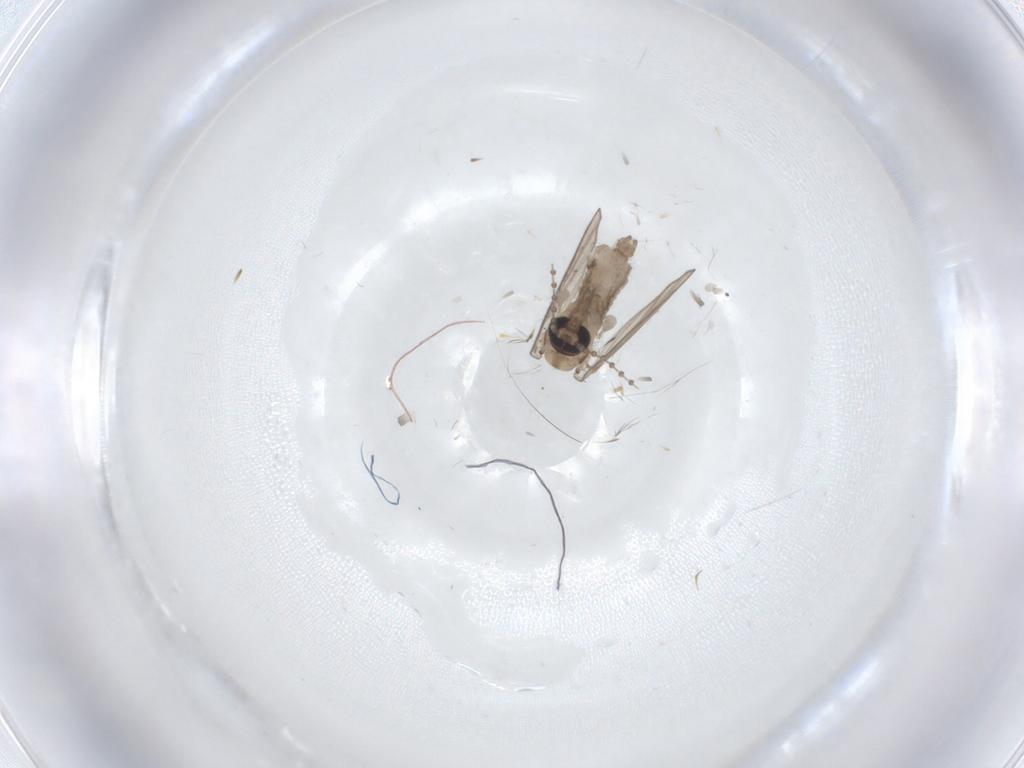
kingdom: Animalia
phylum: Arthropoda
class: Insecta
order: Diptera
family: Psychodidae
